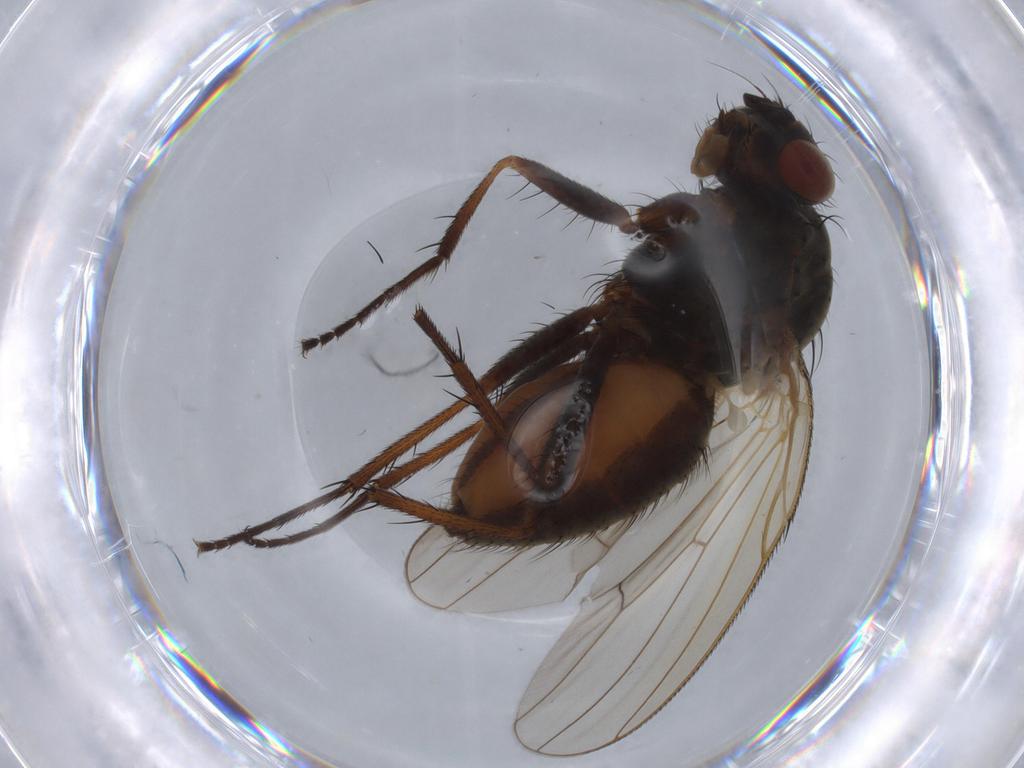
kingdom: Animalia
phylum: Arthropoda
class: Insecta
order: Diptera
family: Anthomyiidae
